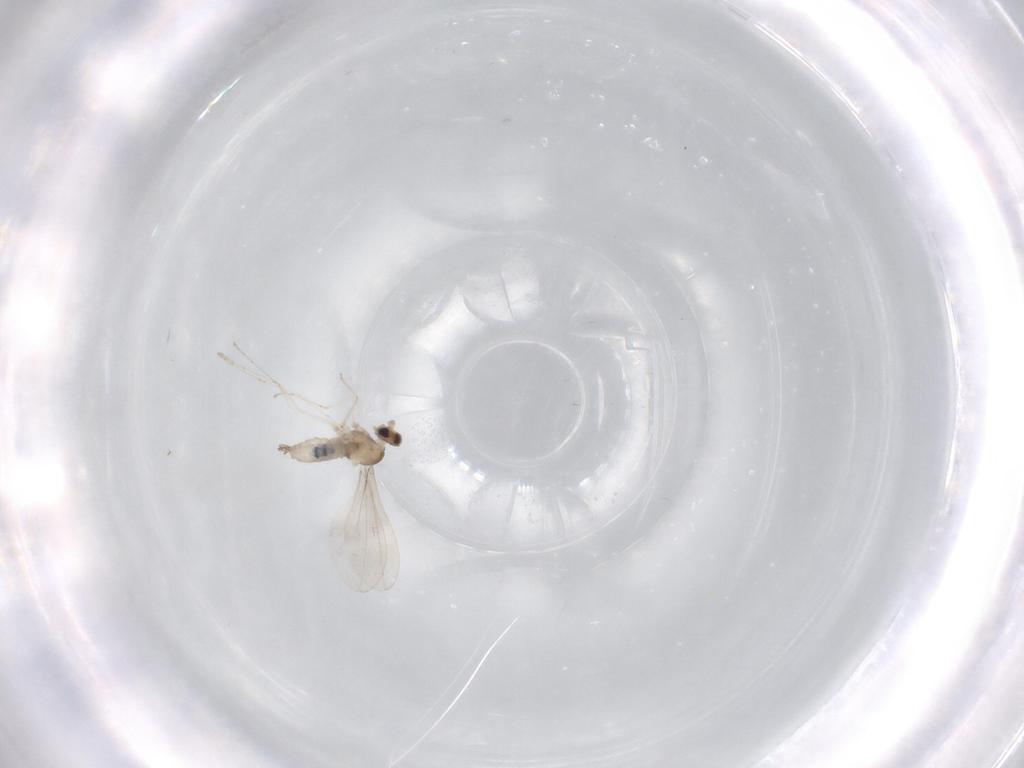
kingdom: Animalia
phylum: Arthropoda
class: Insecta
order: Diptera
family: Cecidomyiidae
